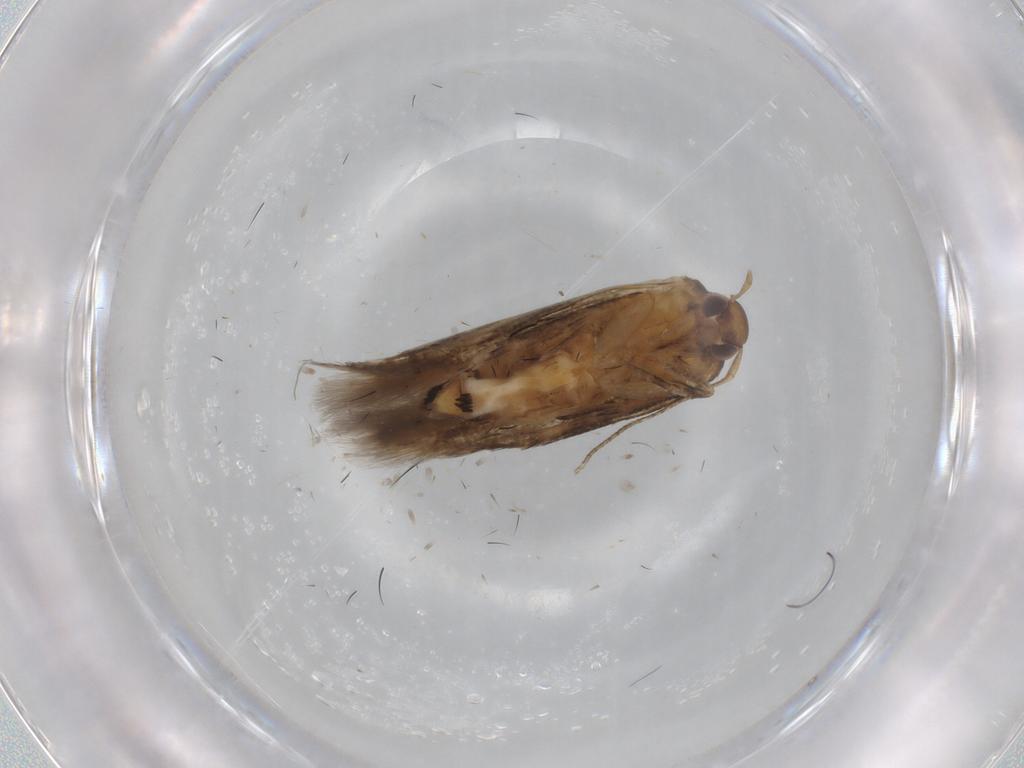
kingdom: Animalia
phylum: Arthropoda
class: Insecta
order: Lepidoptera
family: Cosmopterigidae
